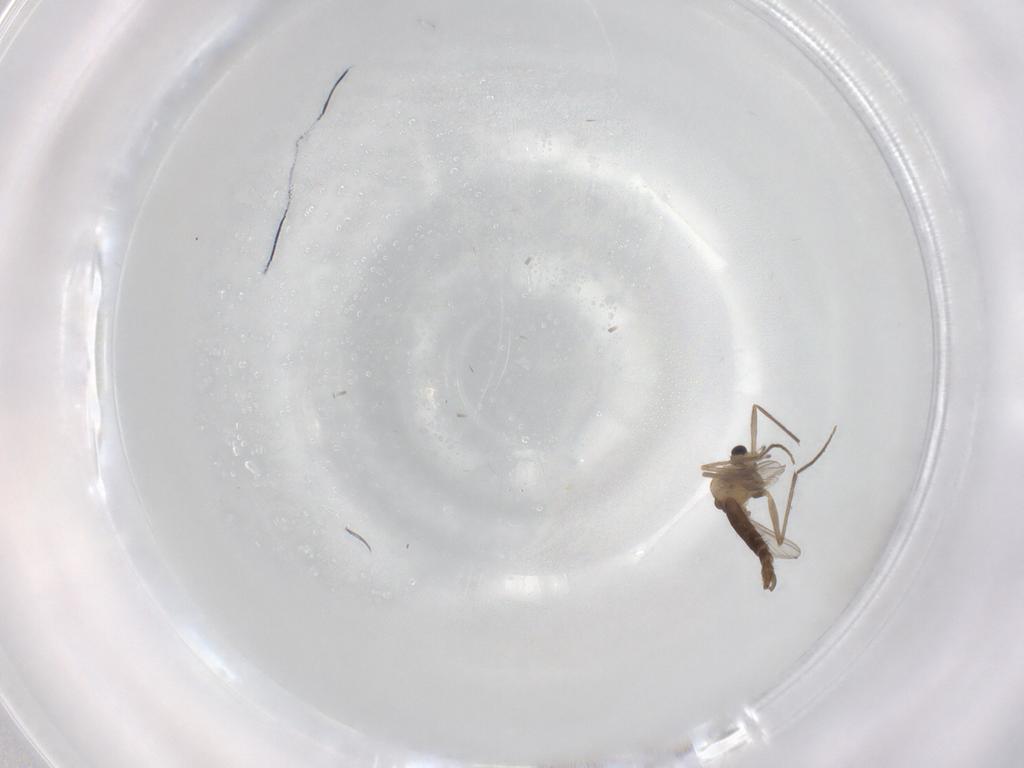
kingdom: Animalia
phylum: Arthropoda
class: Insecta
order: Diptera
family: Chironomidae
